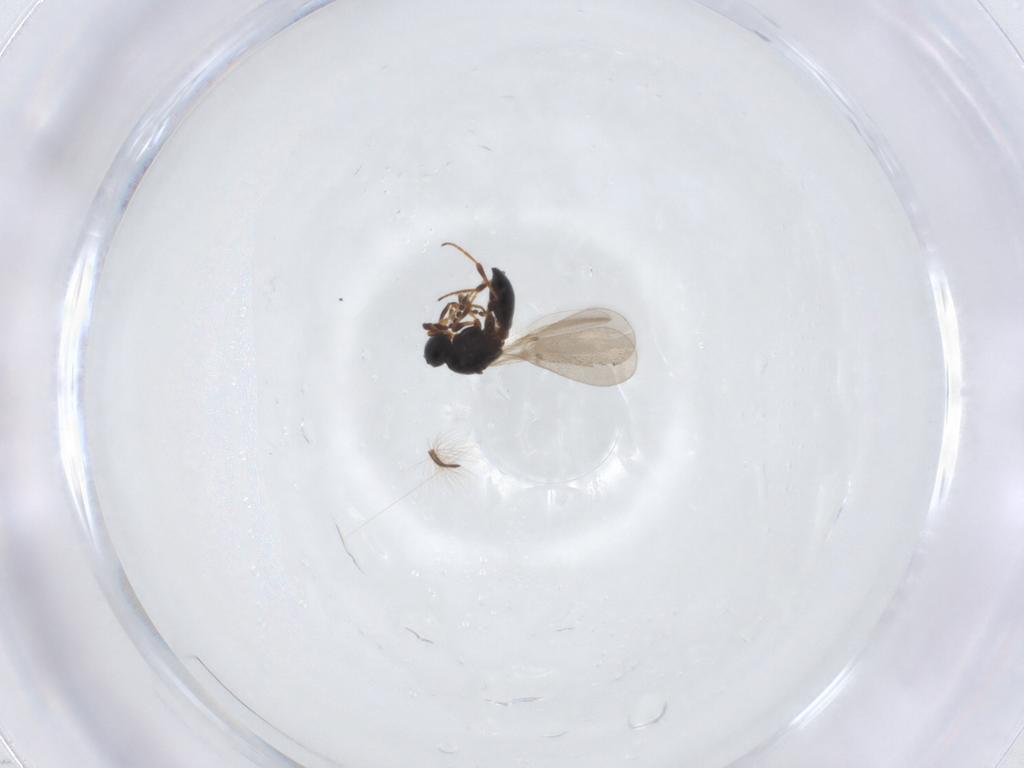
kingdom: Animalia
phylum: Arthropoda
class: Insecta
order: Hymenoptera
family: Platygastridae
